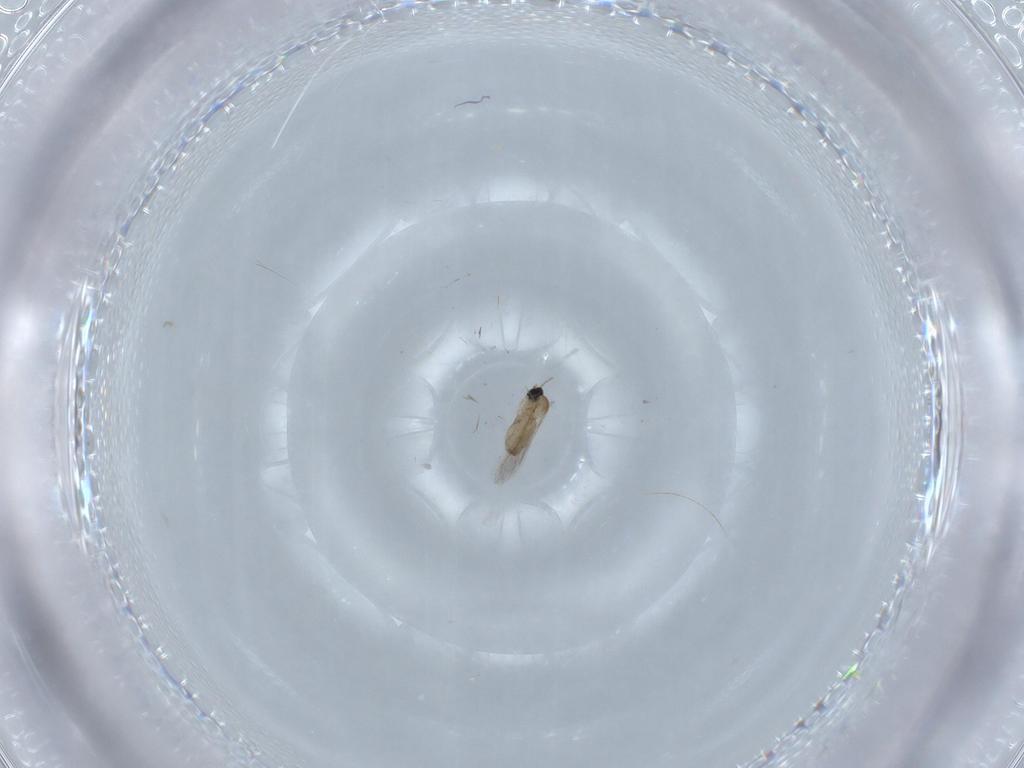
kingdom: Animalia
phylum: Arthropoda
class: Insecta
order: Diptera
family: Cecidomyiidae
